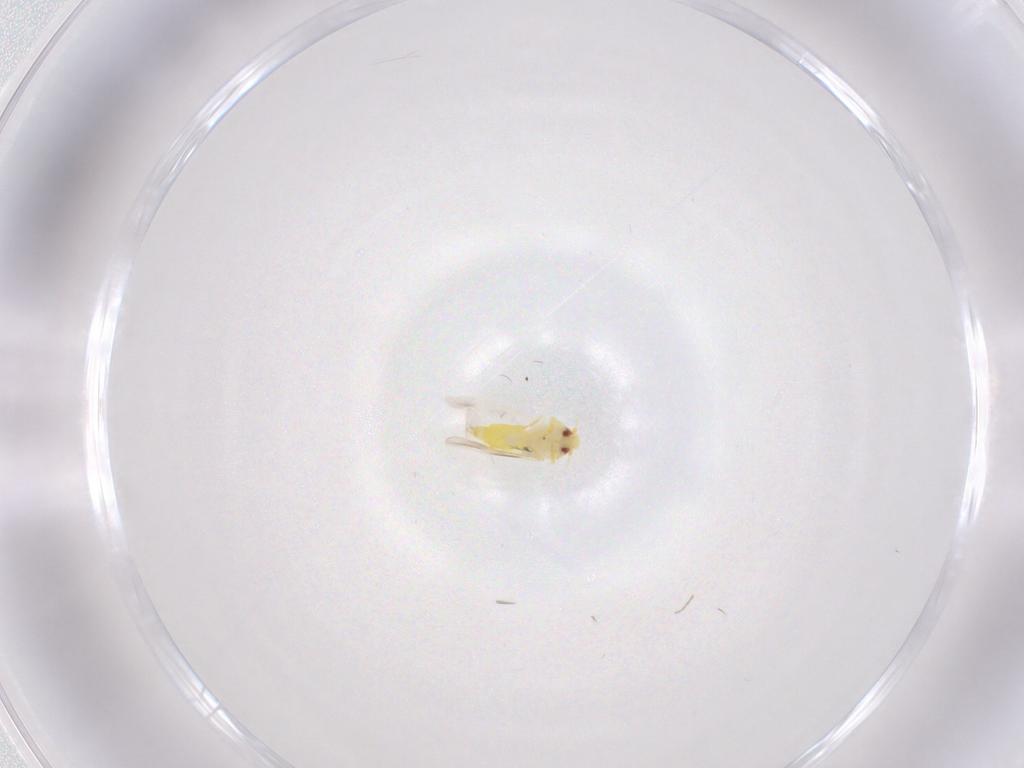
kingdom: Animalia
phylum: Arthropoda
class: Insecta
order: Hemiptera
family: Aleyrodidae
